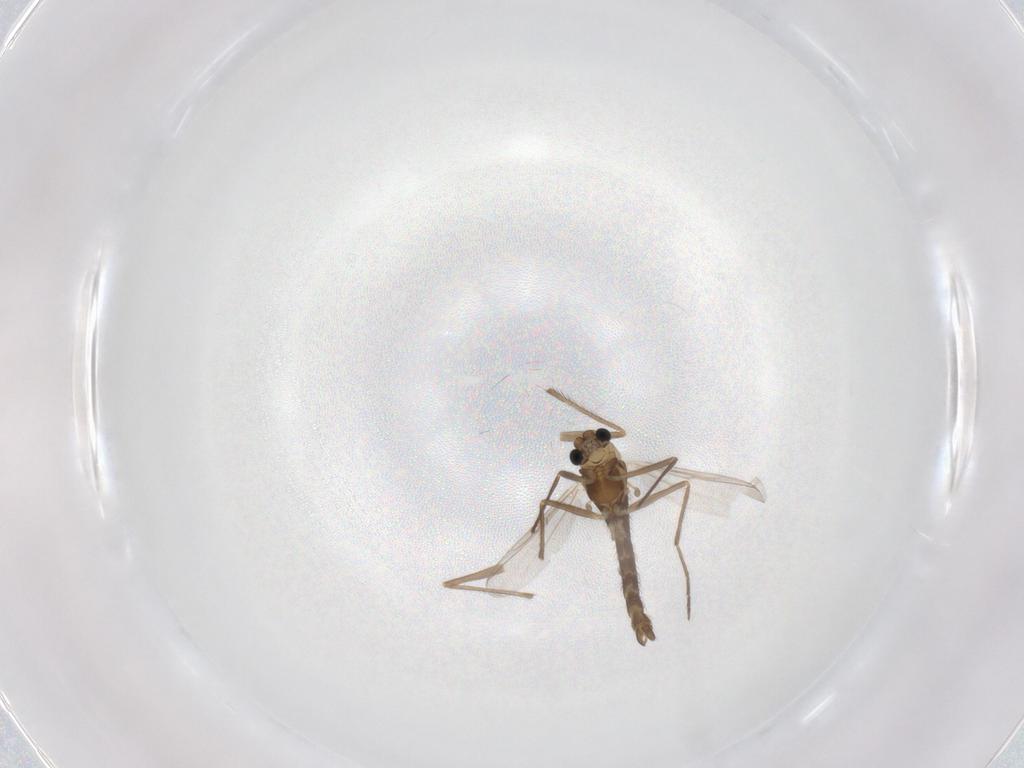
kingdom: Animalia
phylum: Arthropoda
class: Insecta
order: Diptera
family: Chironomidae
